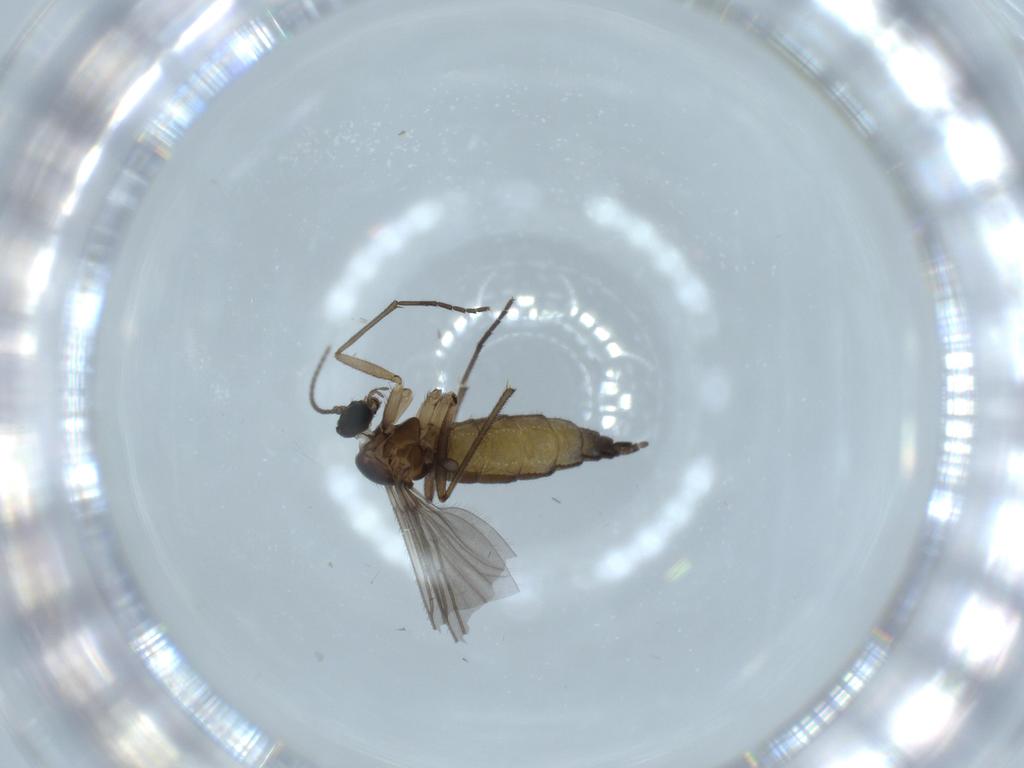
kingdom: Animalia
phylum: Arthropoda
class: Insecta
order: Diptera
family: Sciaridae
